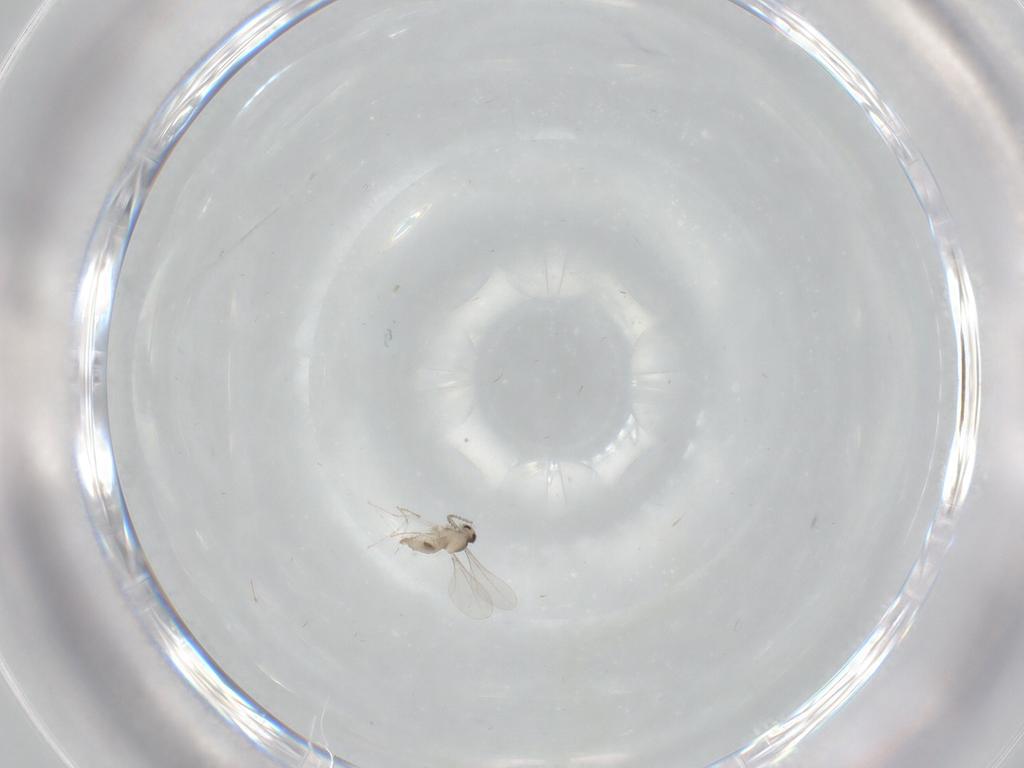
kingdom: Animalia
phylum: Arthropoda
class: Insecta
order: Diptera
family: Cecidomyiidae
